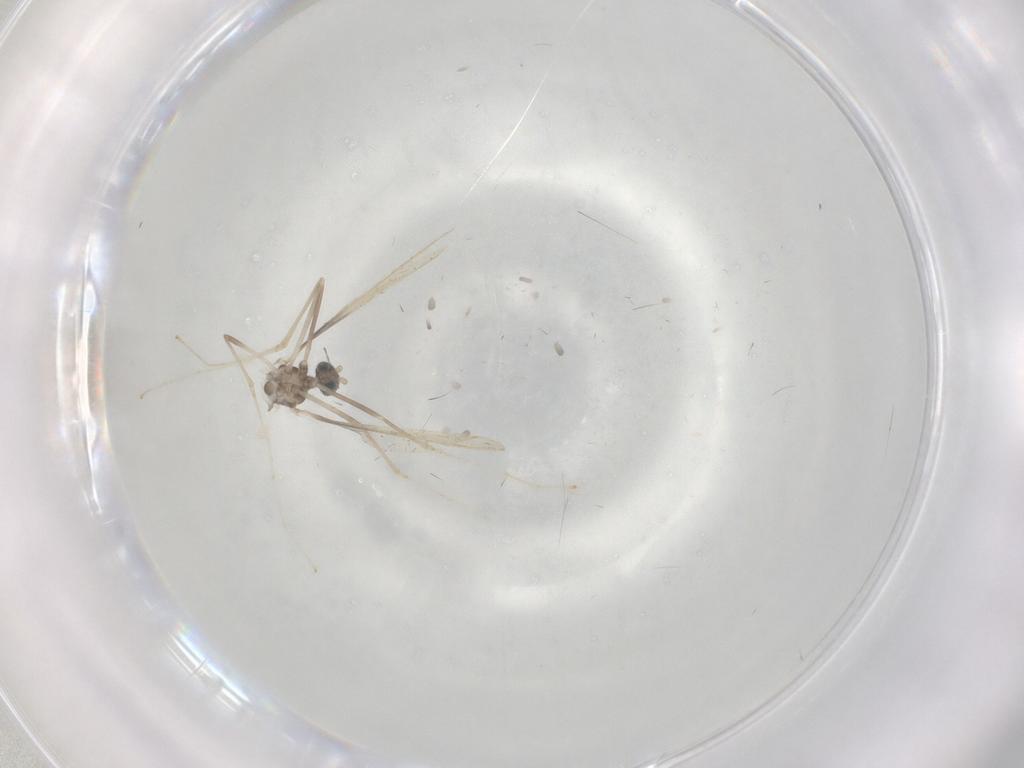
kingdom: Animalia
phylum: Arthropoda
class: Insecta
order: Diptera
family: Cecidomyiidae
